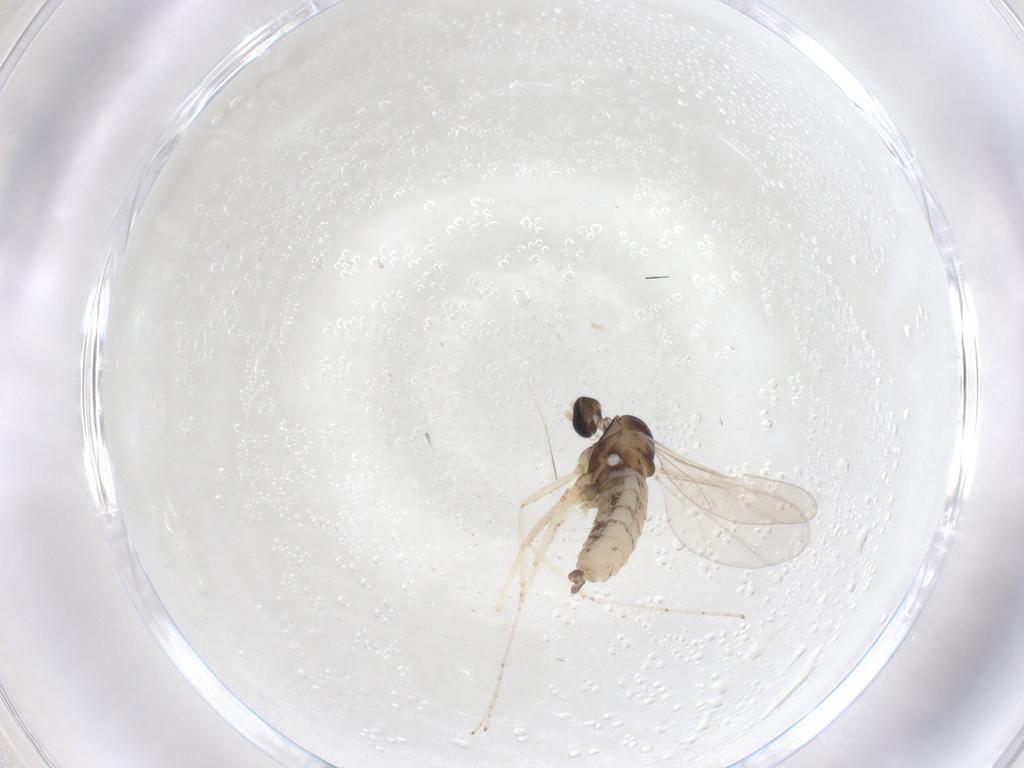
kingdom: Animalia
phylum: Arthropoda
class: Insecta
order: Diptera
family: Cecidomyiidae
